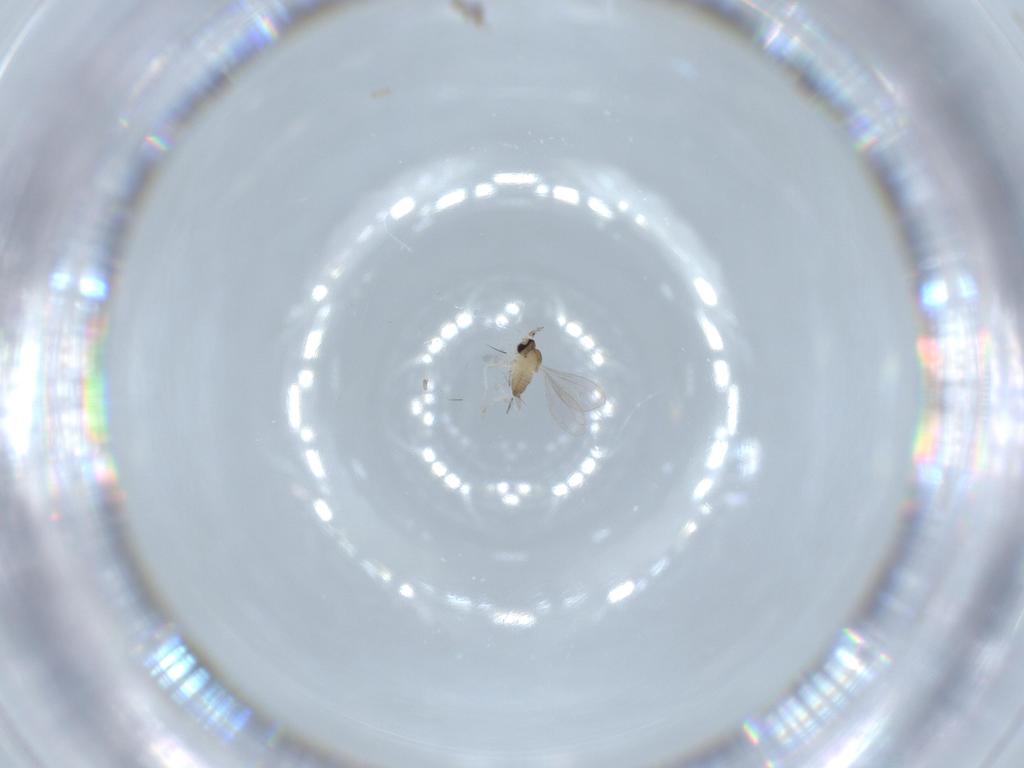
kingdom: Animalia
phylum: Arthropoda
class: Insecta
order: Diptera
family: Cecidomyiidae
